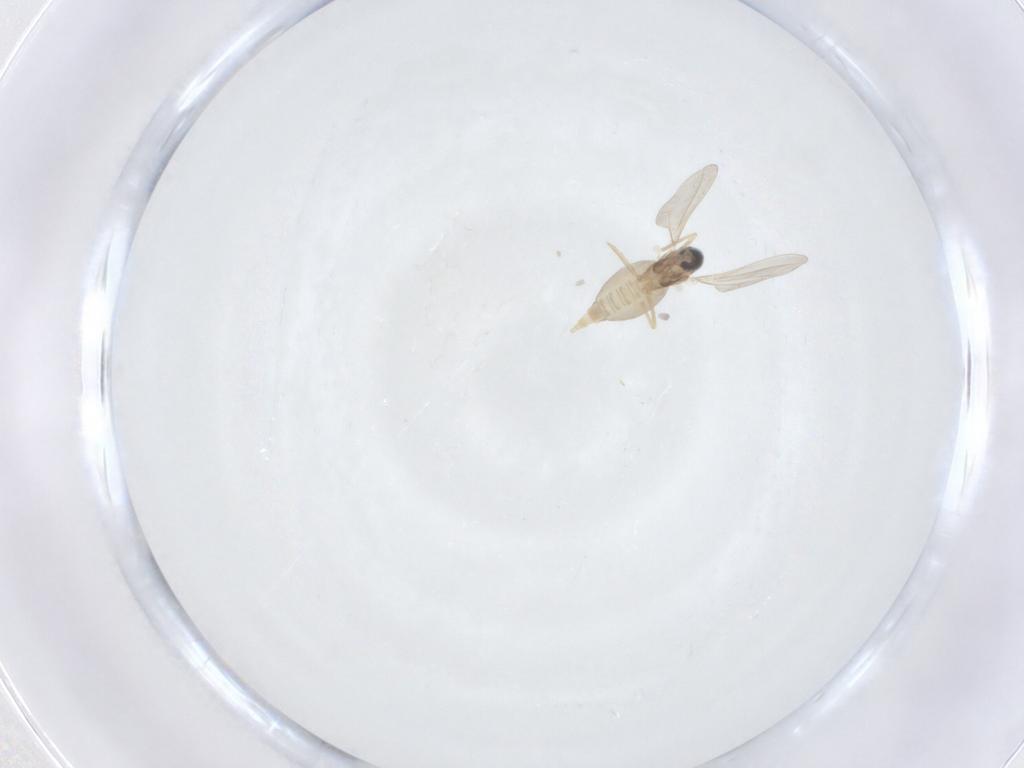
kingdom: Animalia
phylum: Arthropoda
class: Insecta
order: Diptera
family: Cecidomyiidae
